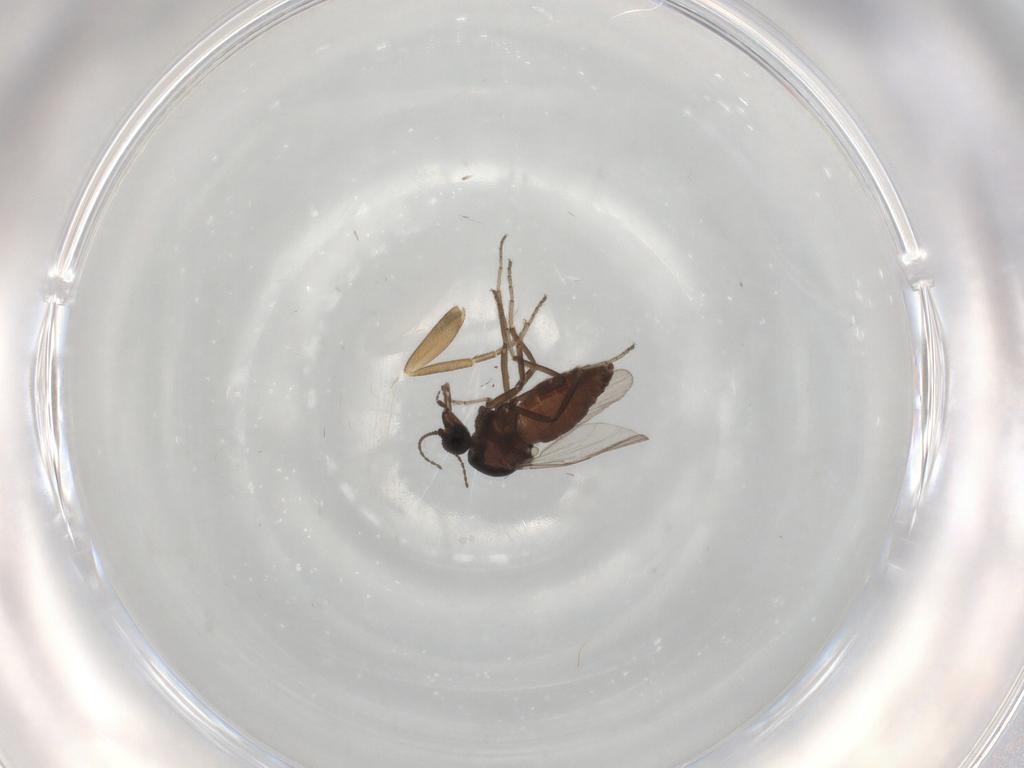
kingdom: Animalia
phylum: Arthropoda
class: Insecta
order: Diptera
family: Ceratopogonidae
